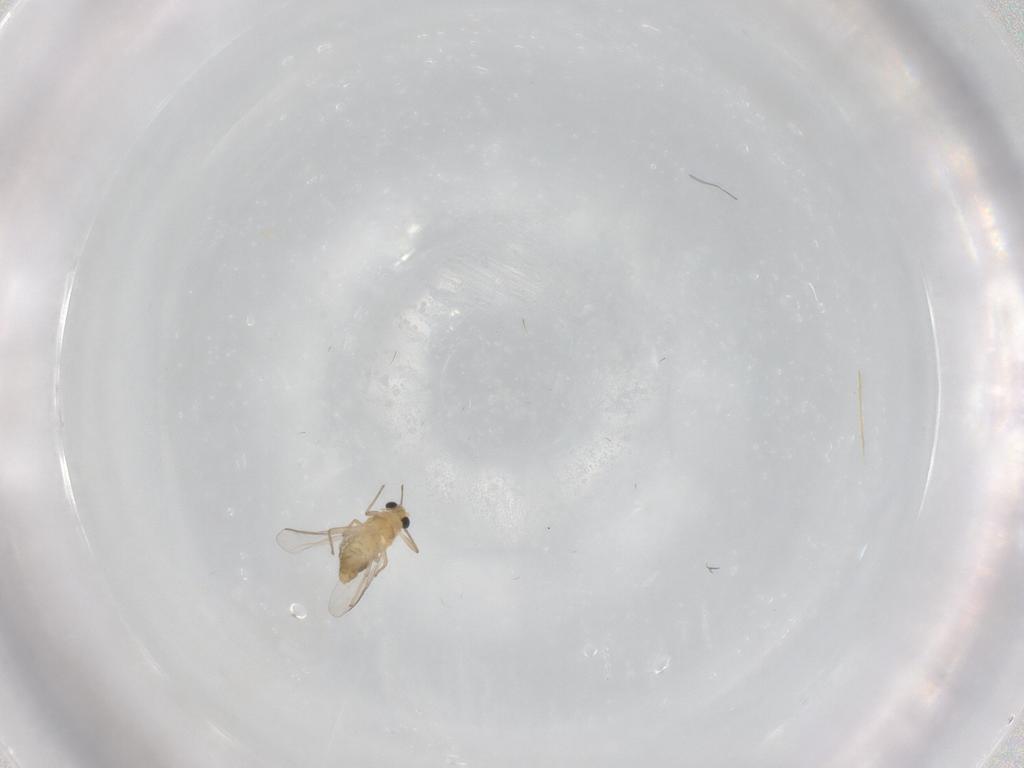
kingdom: Animalia
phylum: Arthropoda
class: Insecta
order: Diptera
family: Chironomidae
